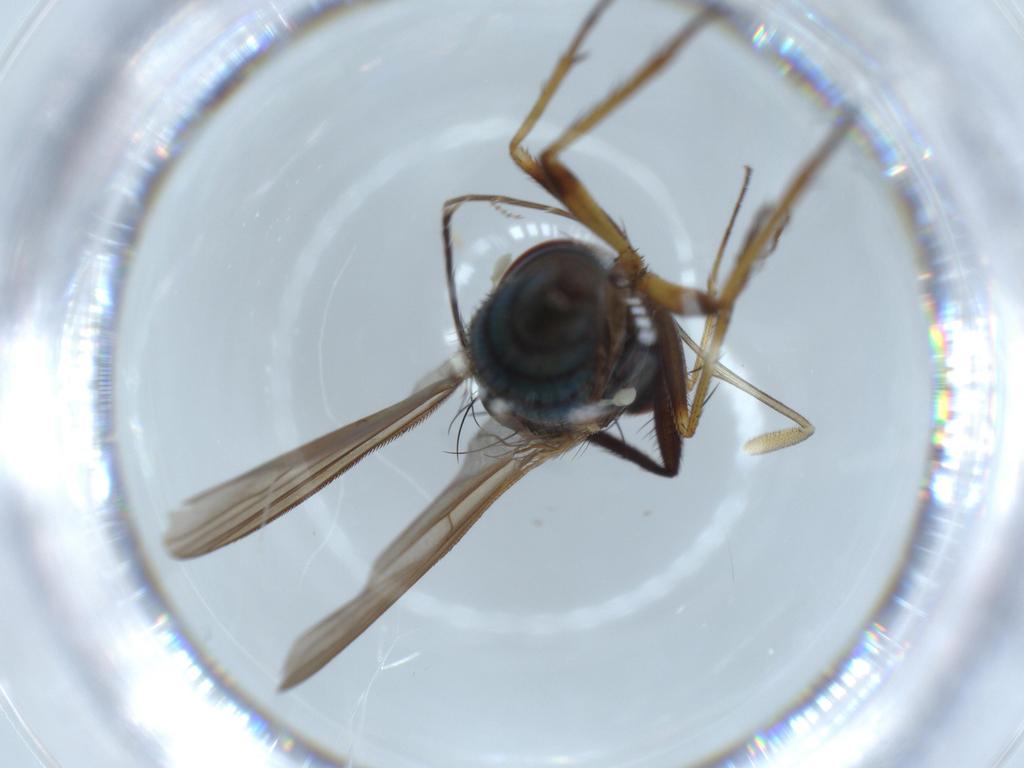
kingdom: Animalia
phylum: Arthropoda
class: Insecta
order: Diptera
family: Dolichopodidae
